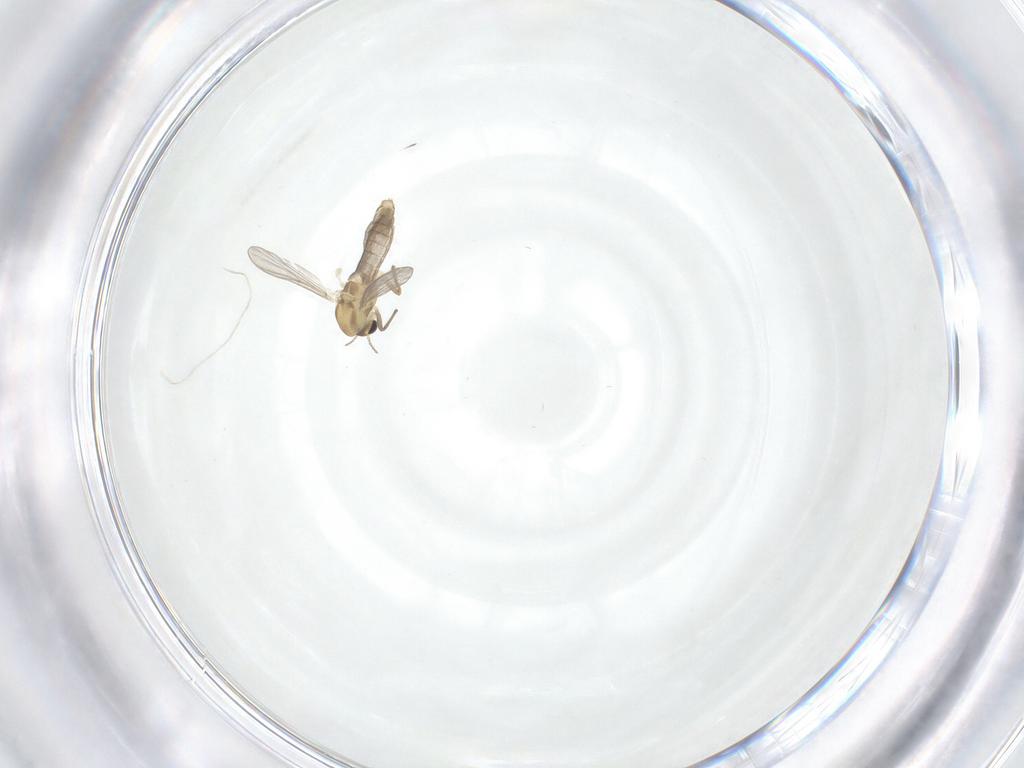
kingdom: Animalia
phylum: Arthropoda
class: Insecta
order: Diptera
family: Chironomidae
